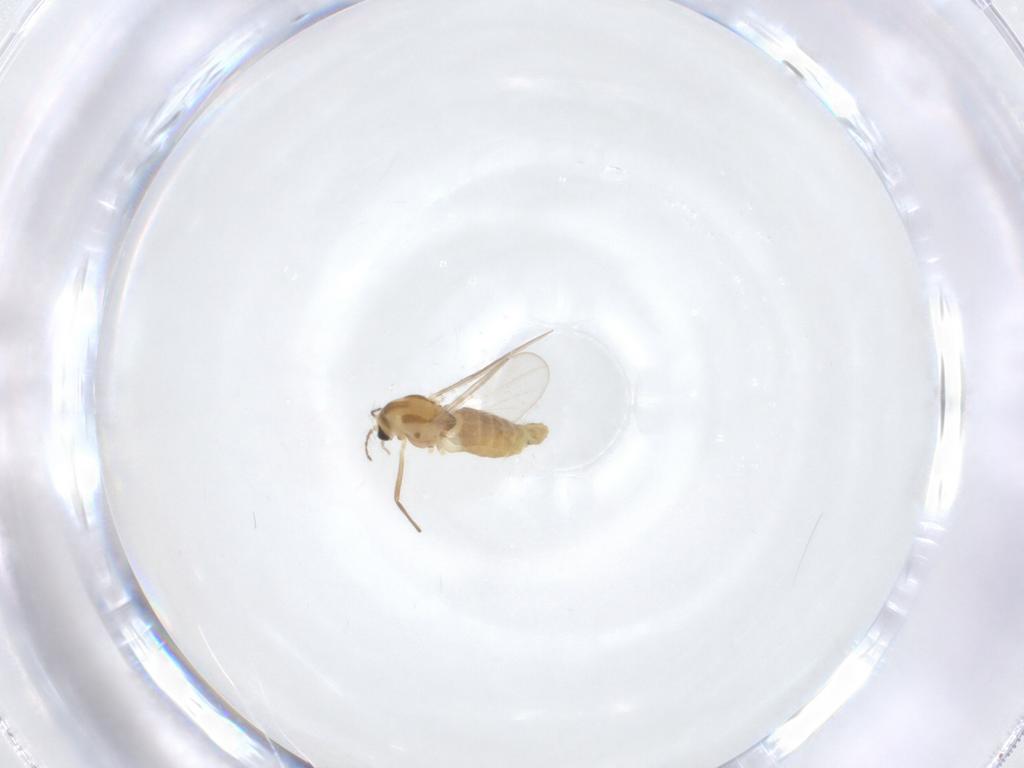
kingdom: Animalia
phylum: Arthropoda
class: Insecta
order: Diptera
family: Chironomidae
